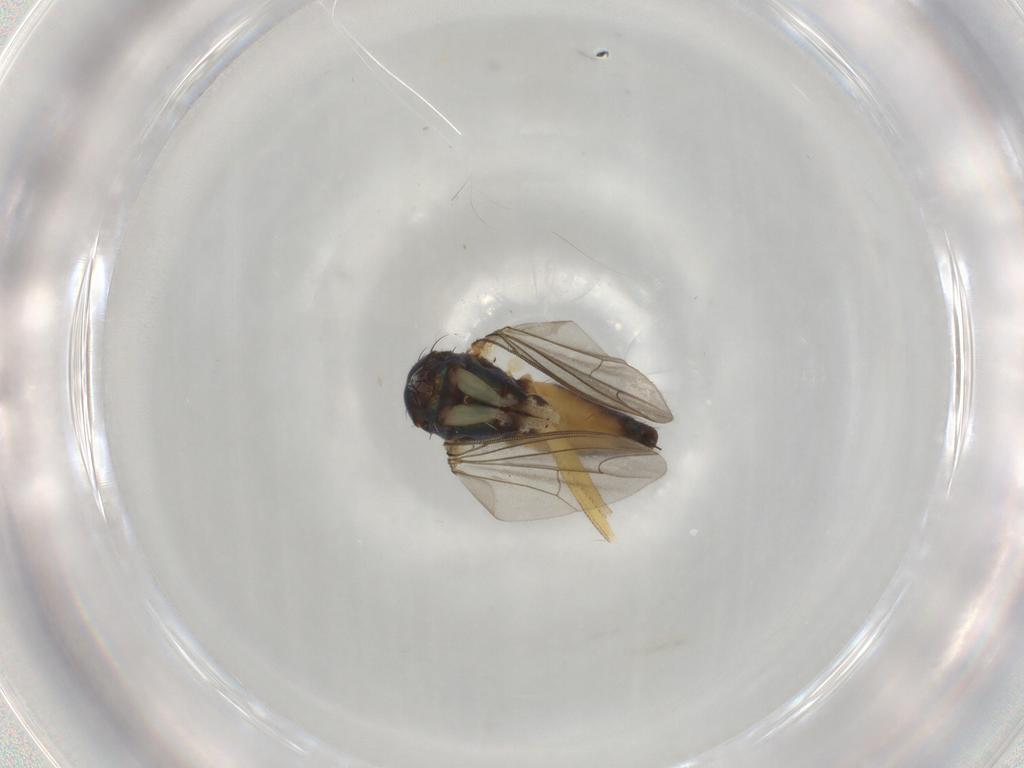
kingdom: Animalia
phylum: Arthropoda
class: Insecta
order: Diptera
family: Dolichopodidae
